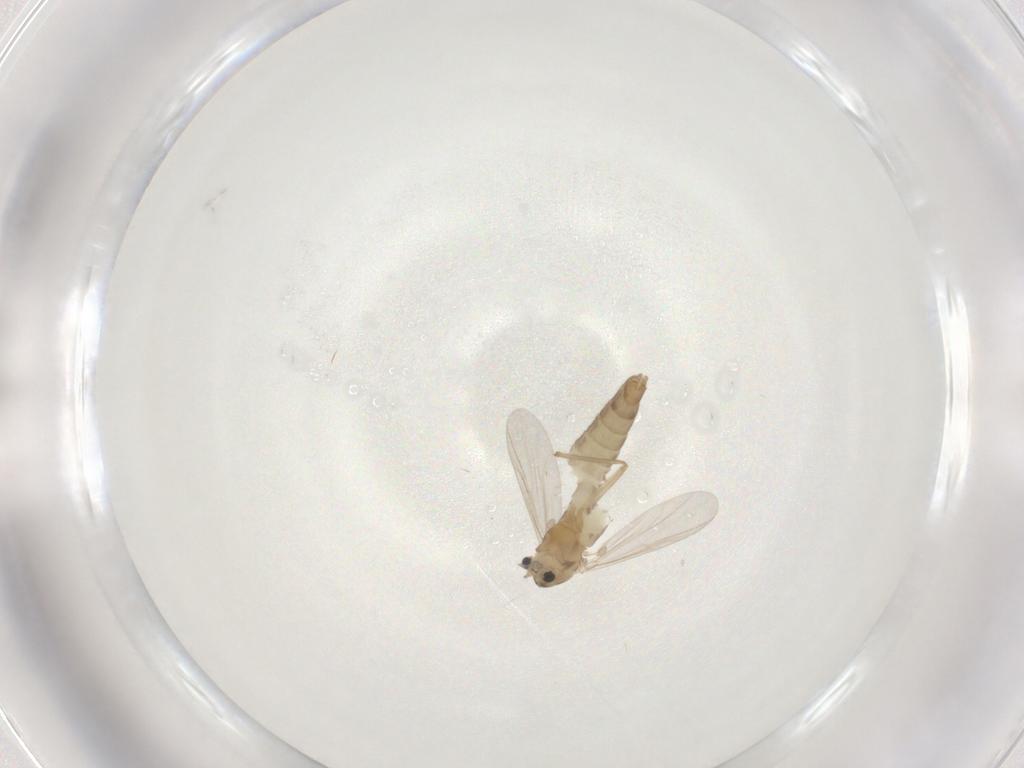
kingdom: Animalia
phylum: Arthropoda
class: Insecta
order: Diptera
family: Chironomidae
